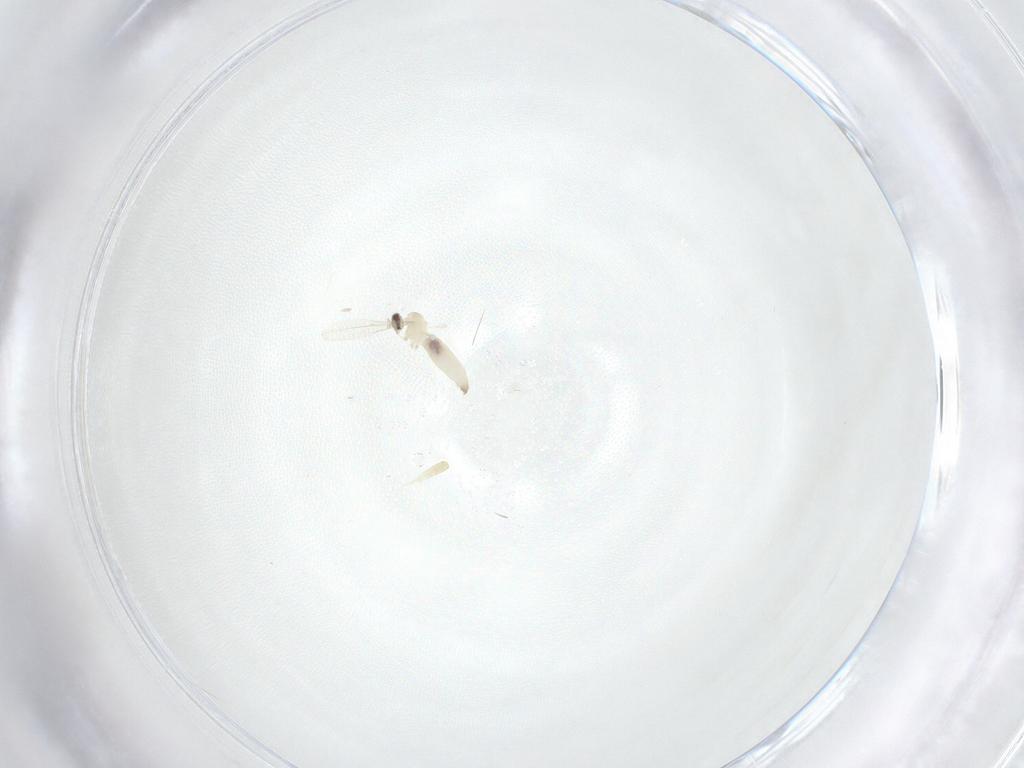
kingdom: Animalia
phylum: Arthropoda
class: Insecta
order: Diptera
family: Cecidomyiidae
